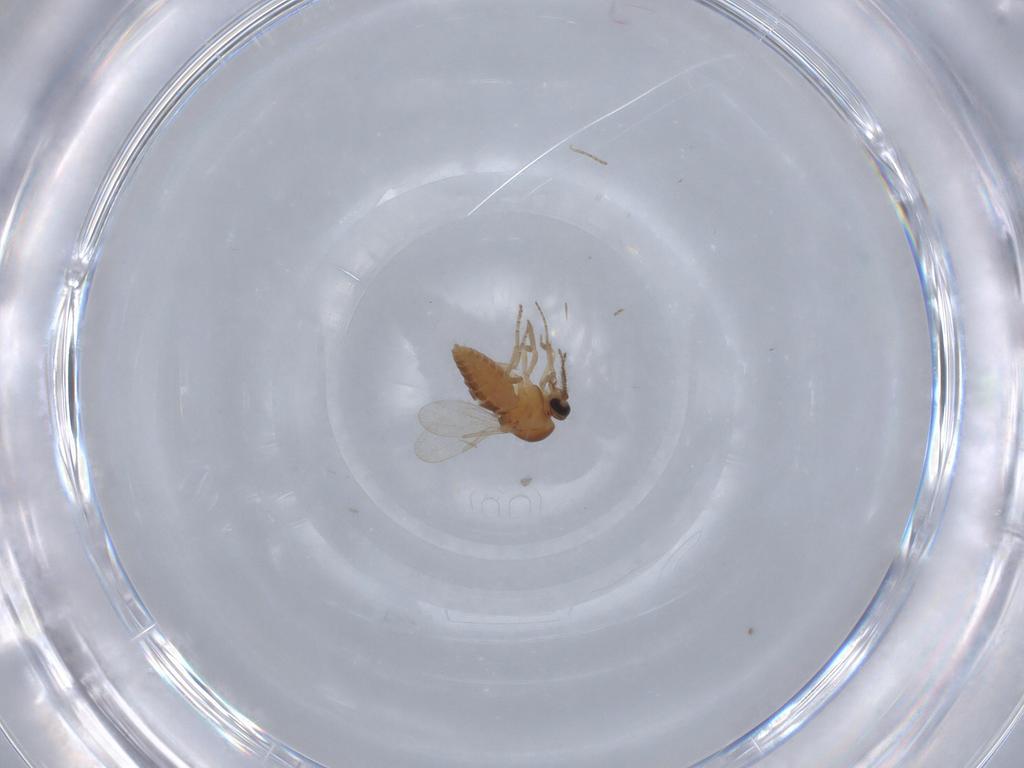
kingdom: Animalia
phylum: Arthropoda
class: Insecta
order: Diptera
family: Ceratopogonidae
